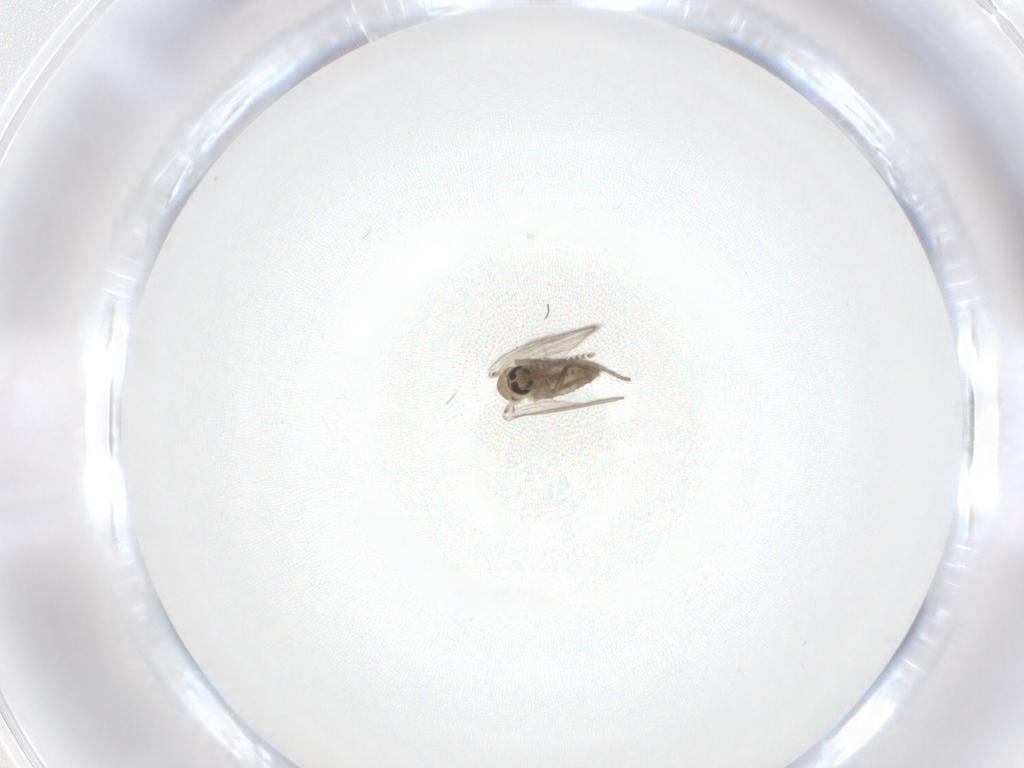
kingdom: Animalia
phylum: Arthropoda
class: Insecta
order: Diptera
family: Psychodidae
